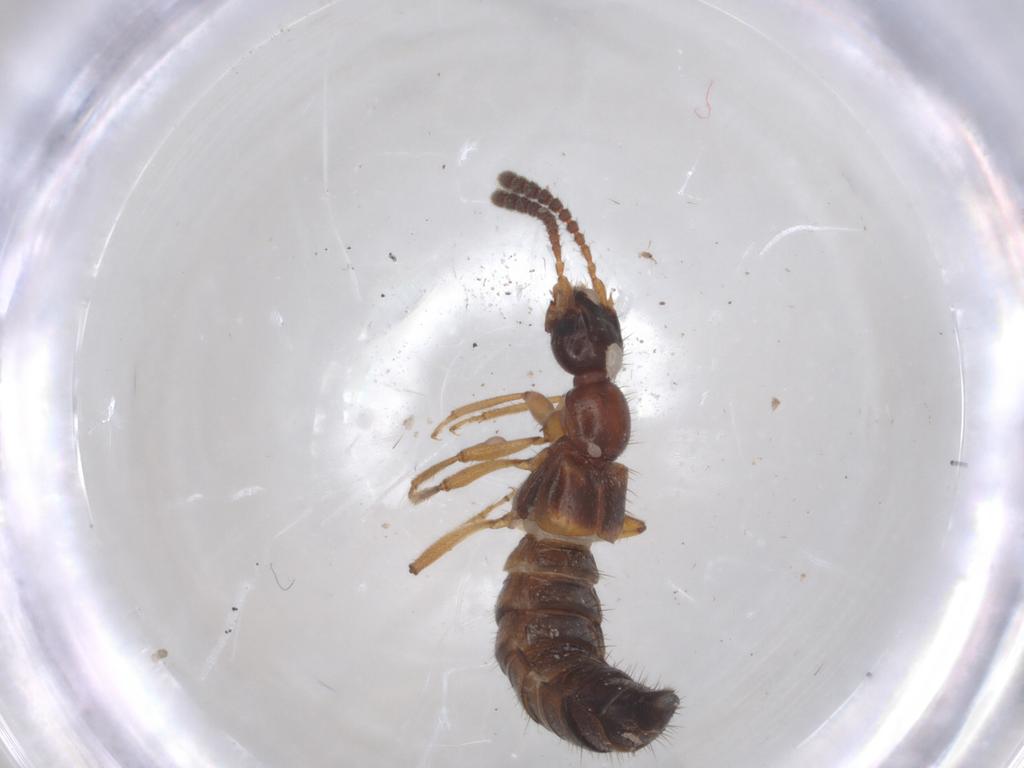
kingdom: Animalia
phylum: Arthropoda
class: Insecta
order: Coleoptera
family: Staphylinidae
